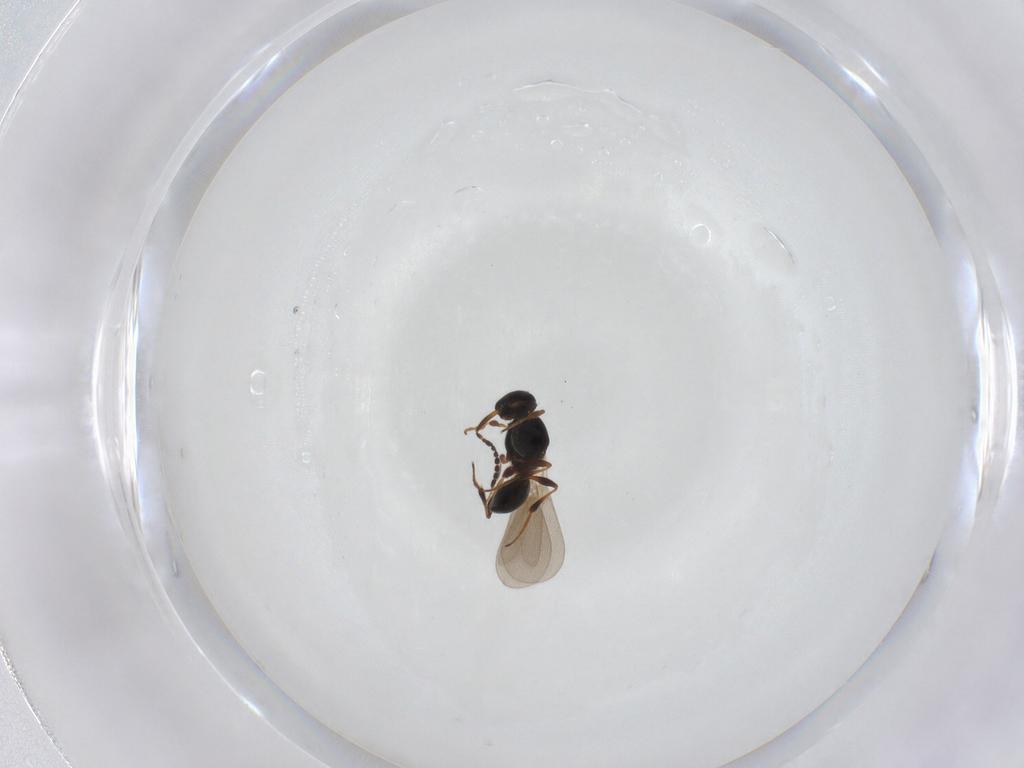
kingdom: Animalia
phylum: Arthropoda
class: Insecta
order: Hymenoptera
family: Platygastridae
